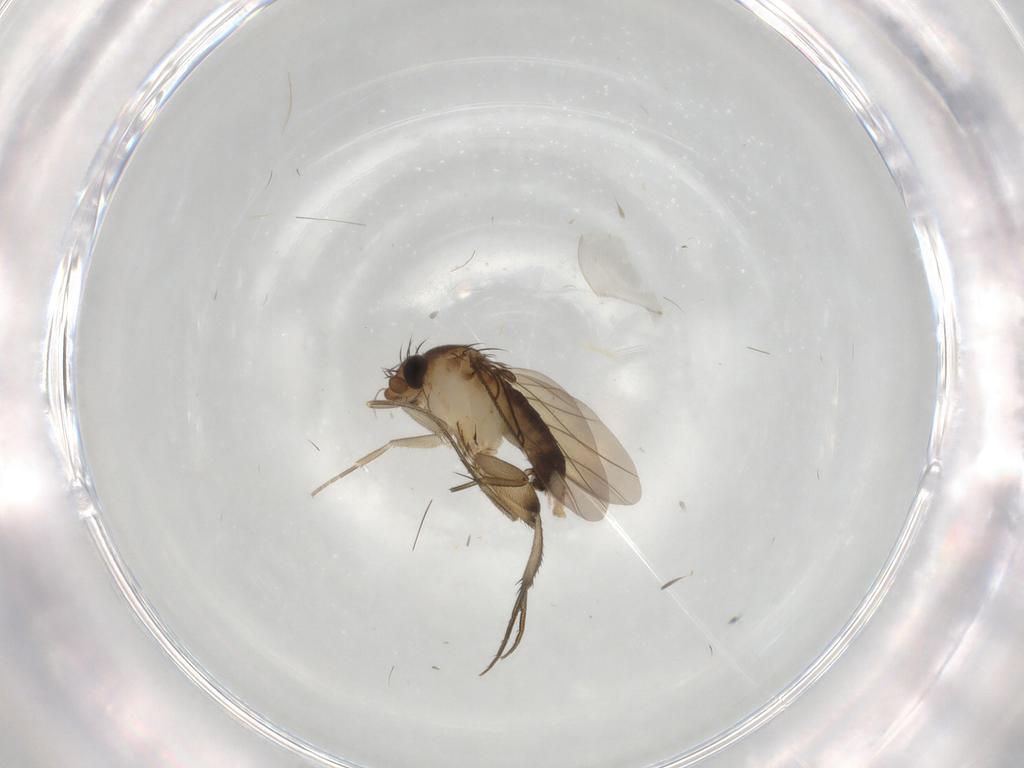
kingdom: Animalia
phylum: Arthropoda
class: Insecta
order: Diptera
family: Phoridae
